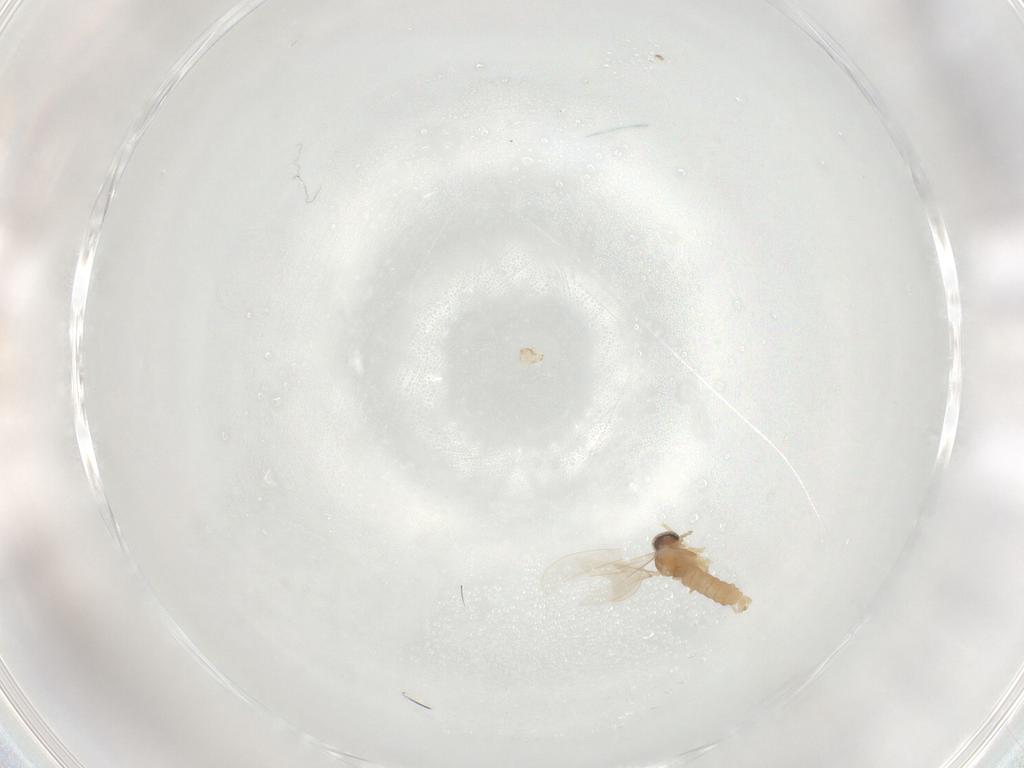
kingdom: Animalia
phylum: Arthropoda
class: Insecta
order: Diptera
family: Cecidomyiidae
